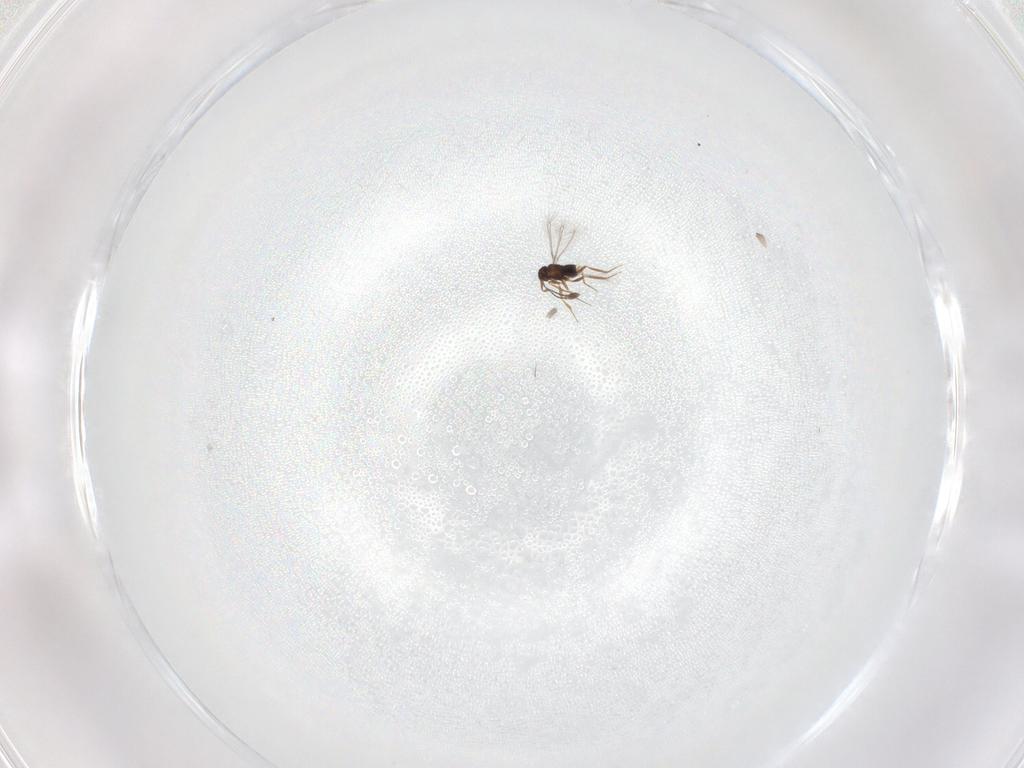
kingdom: Animalia
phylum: Arthropoda
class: Insecta
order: Hymenoptera
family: Mymaridae
